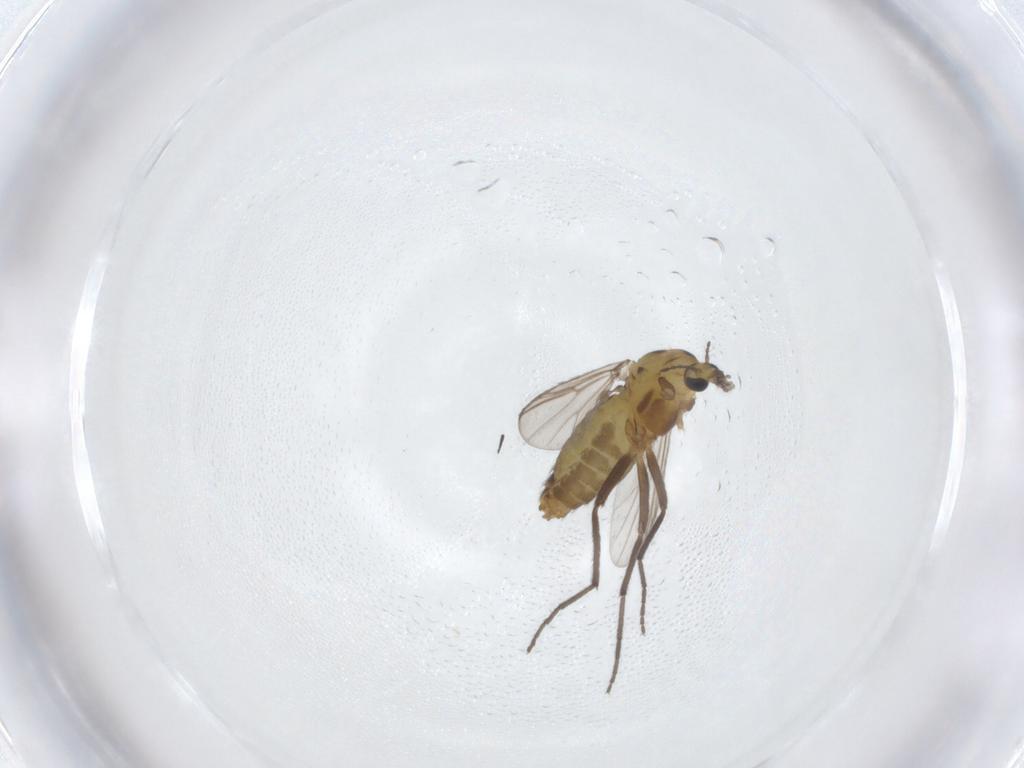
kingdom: Animalia
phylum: Arthropoda
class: Insecta
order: Diptera
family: Chironomidae
